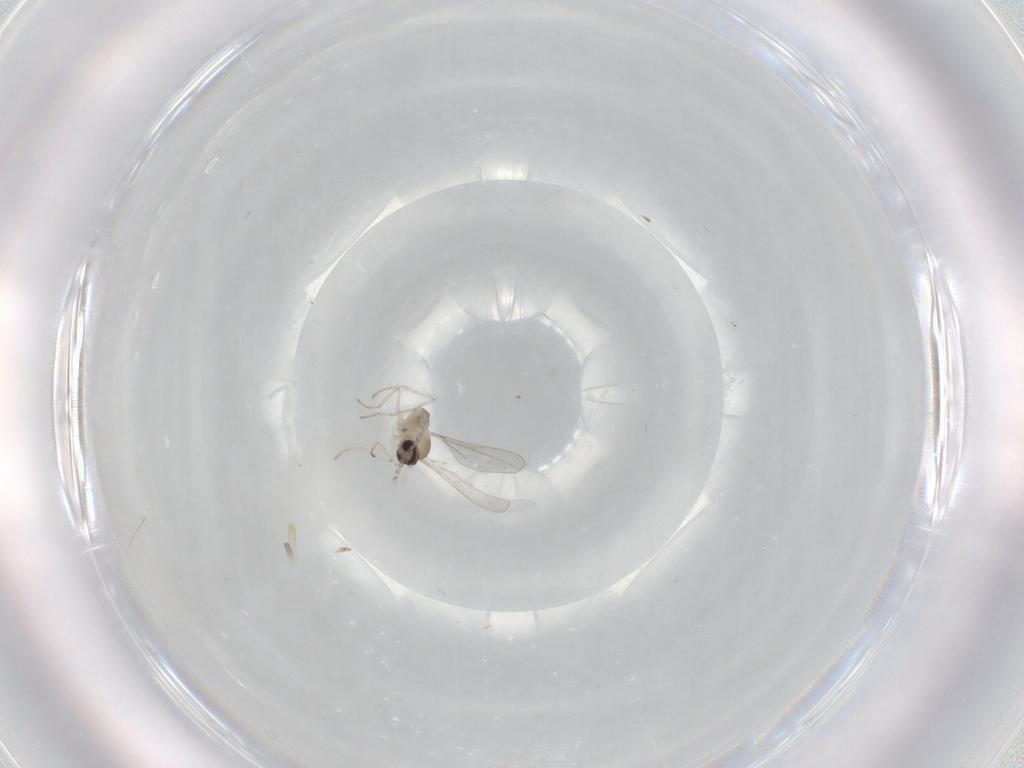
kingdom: Animalia
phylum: Arthropoda
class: Insecta
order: Diptera
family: Cecidomyiidae
